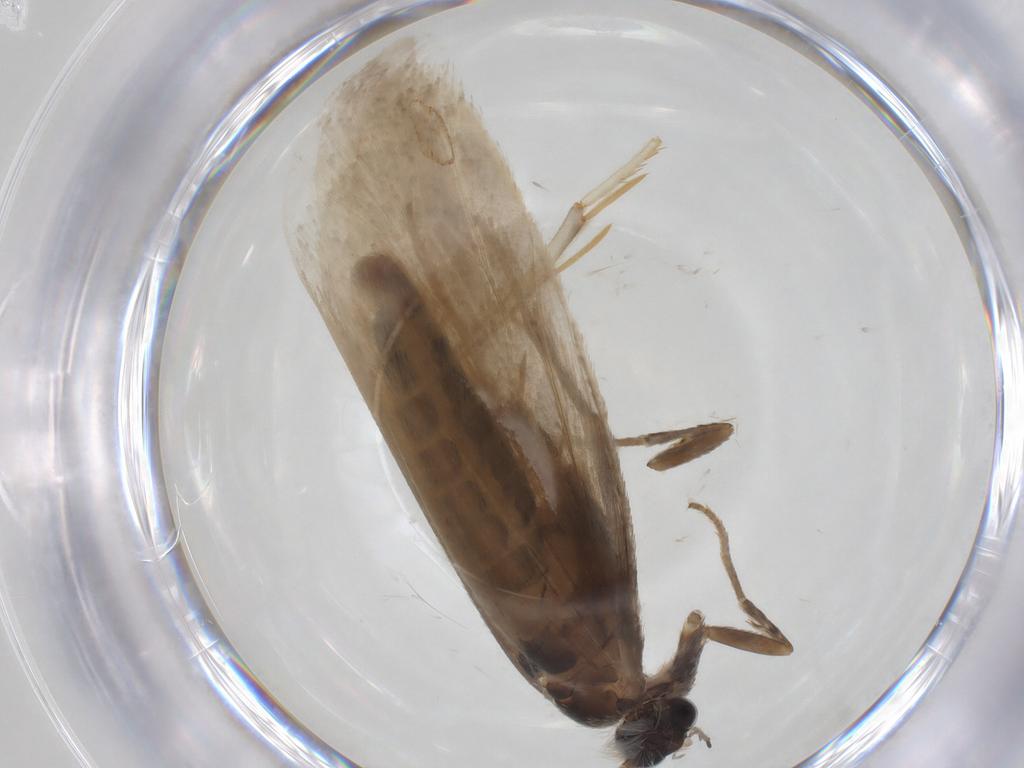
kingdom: Animalia
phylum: Arthropoda
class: Insecta
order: Lepidoptera
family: Tridentaformidae
